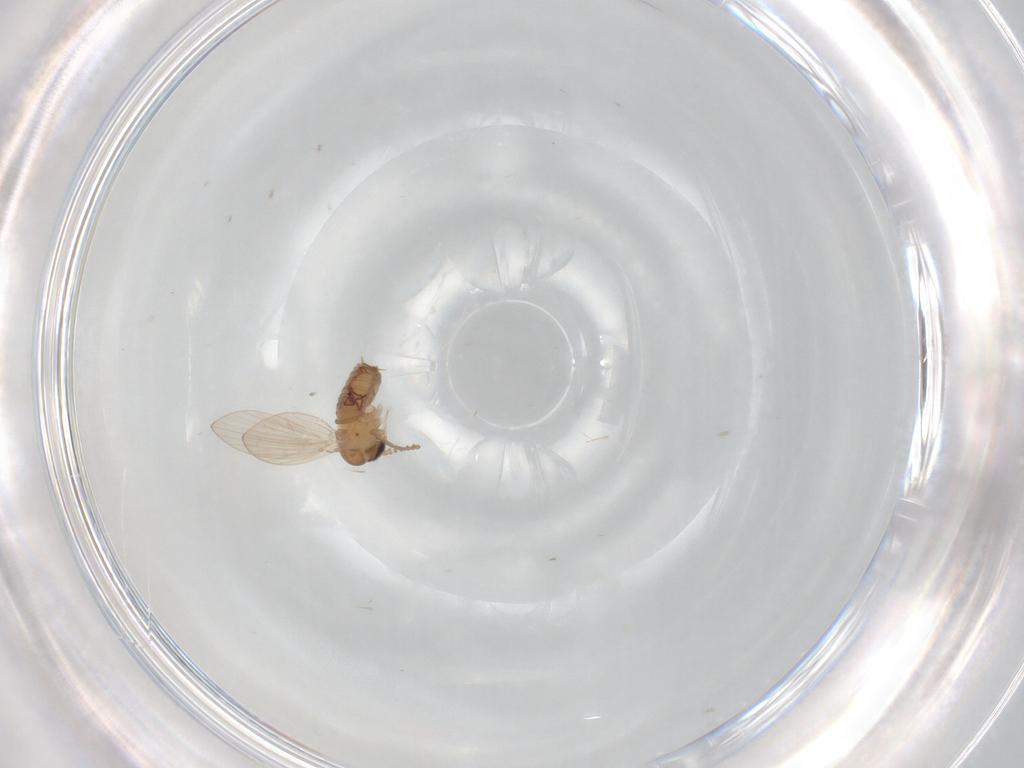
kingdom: Animalia
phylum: Arthropoda
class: Insecta
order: Diptera
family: Psychodidae
